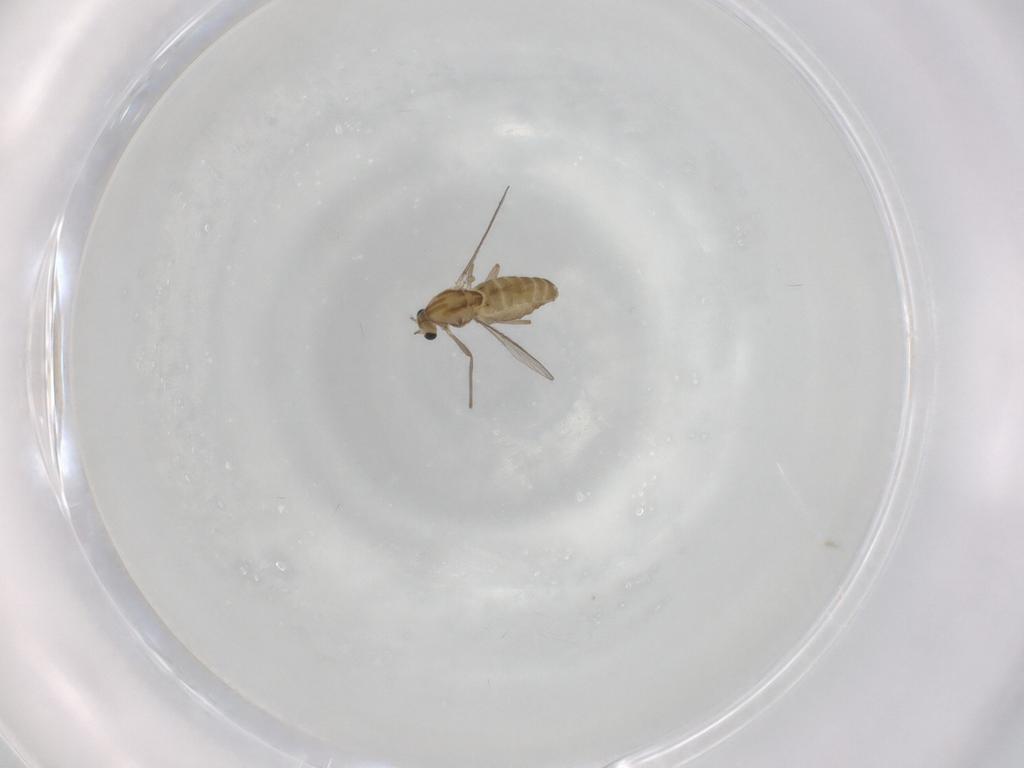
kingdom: Animalia
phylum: Arthropoda
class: Insecta
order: Diptera
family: Chironomidae
